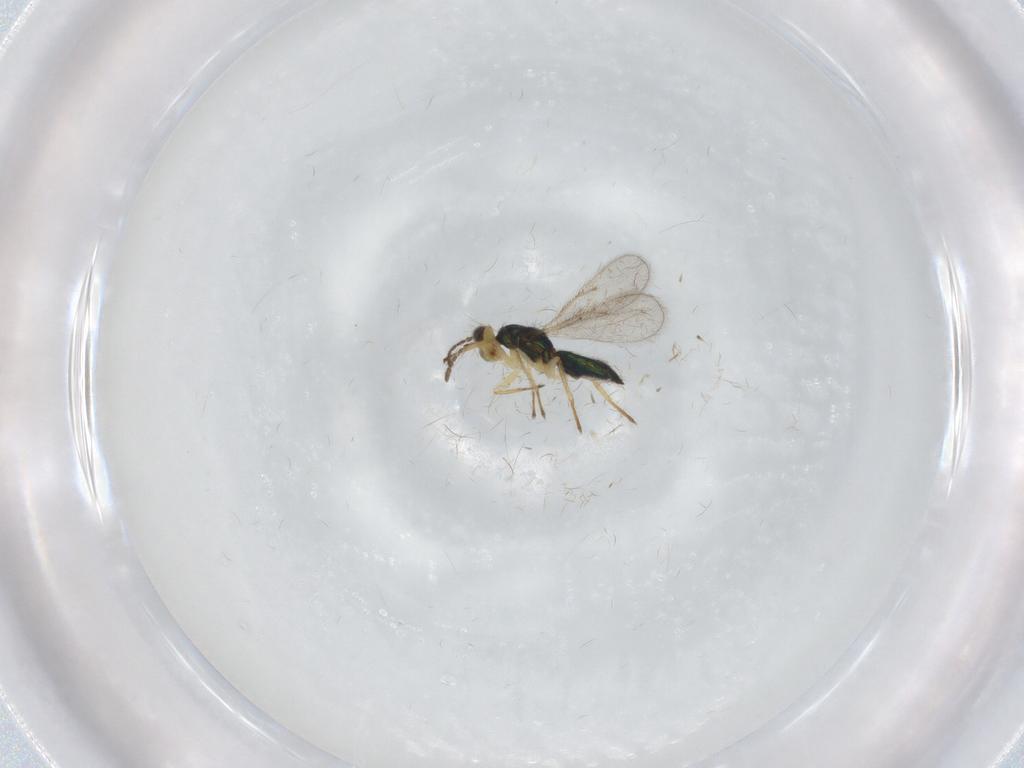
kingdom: Animalia
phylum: Arthropoda
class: Insecta
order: Hymenoptera
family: Eulophidae
